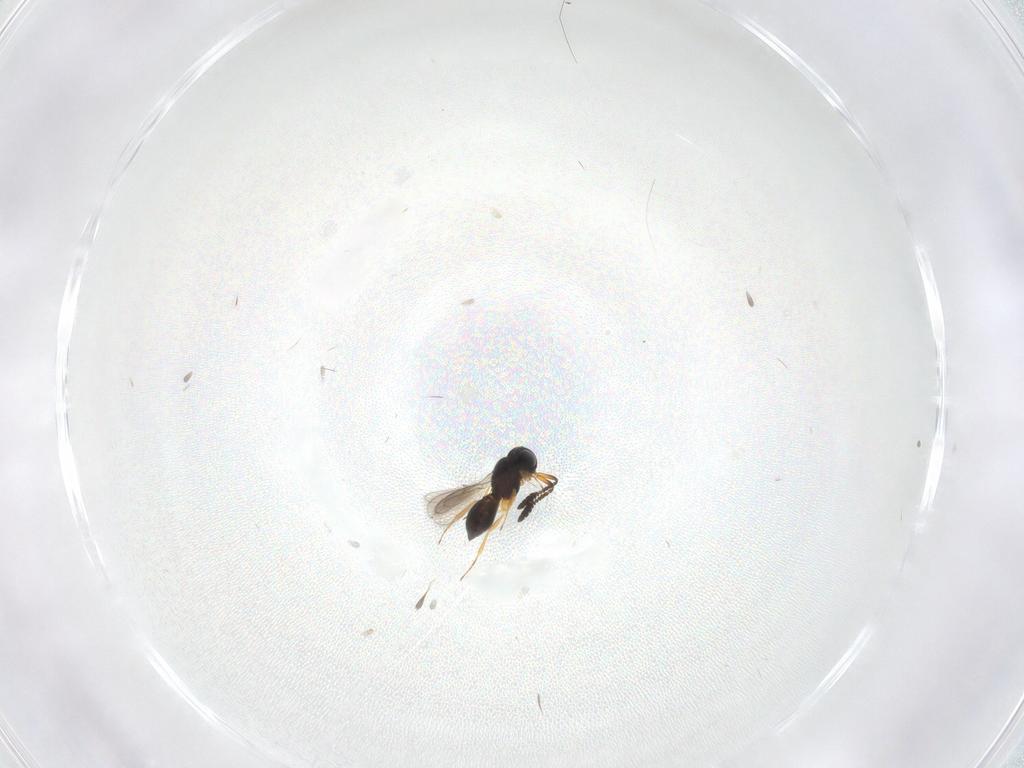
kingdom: Animalia
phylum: Arthropoda
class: Insecta
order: Hymenoptera
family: Scelionidae
